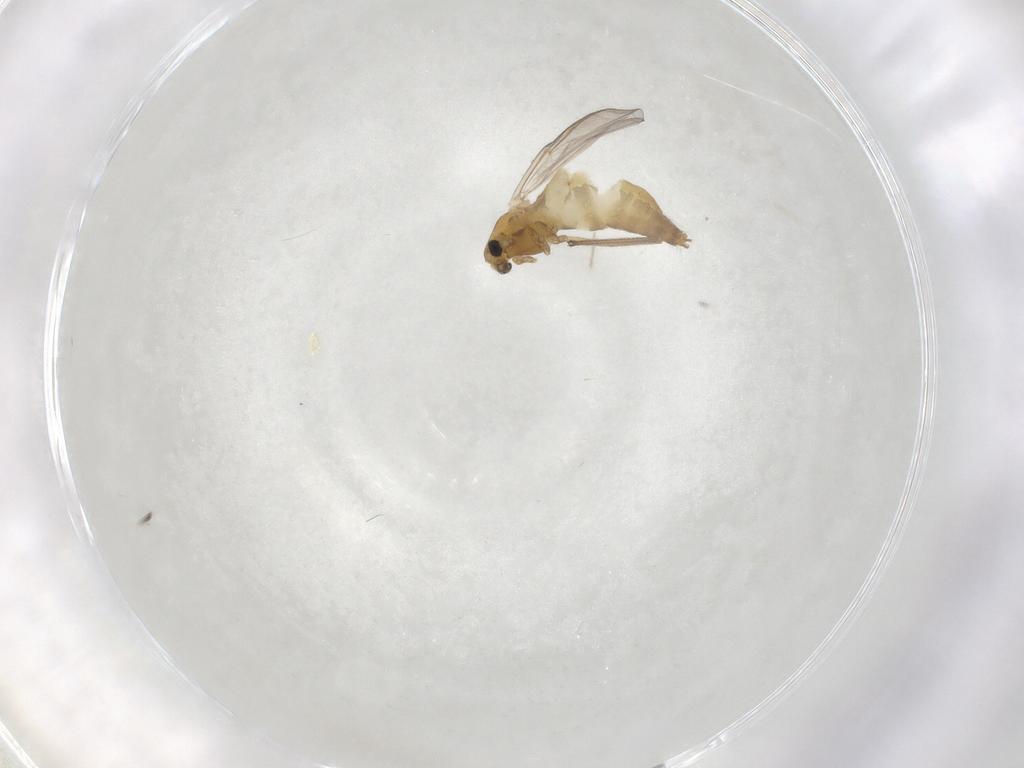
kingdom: Animalia
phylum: Arthropoda
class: Insecta
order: Diptera
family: Chironomidae
